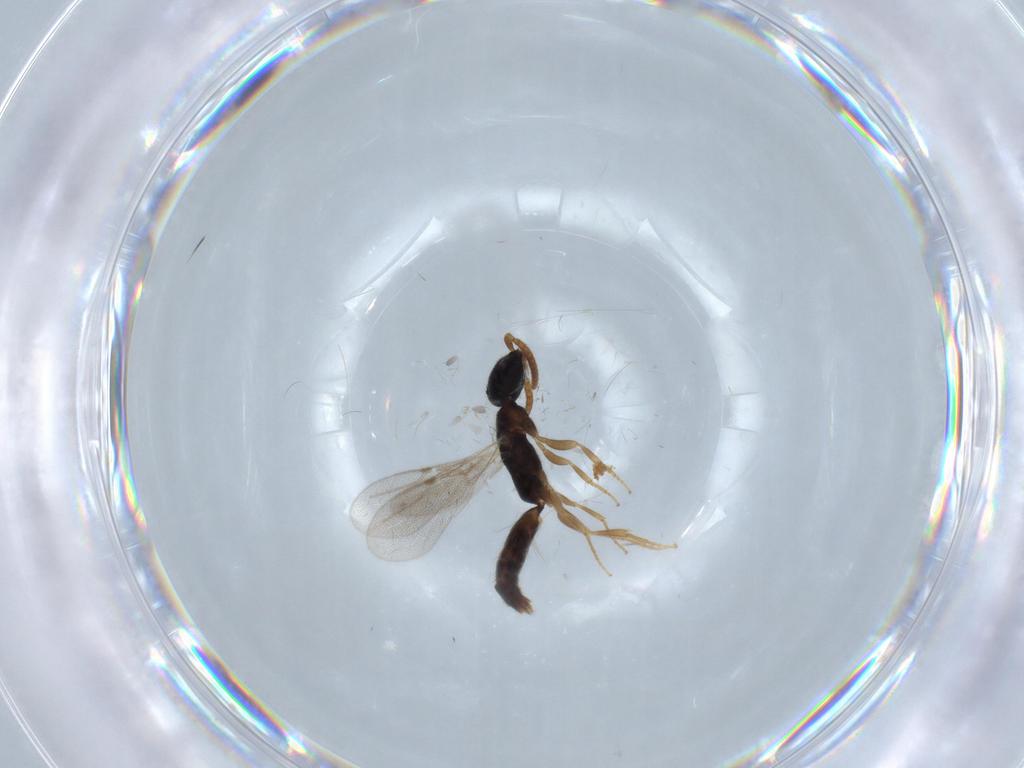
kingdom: Animalia
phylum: Arthropoda
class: Insecta
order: Hymenoptera
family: Bethylidae
